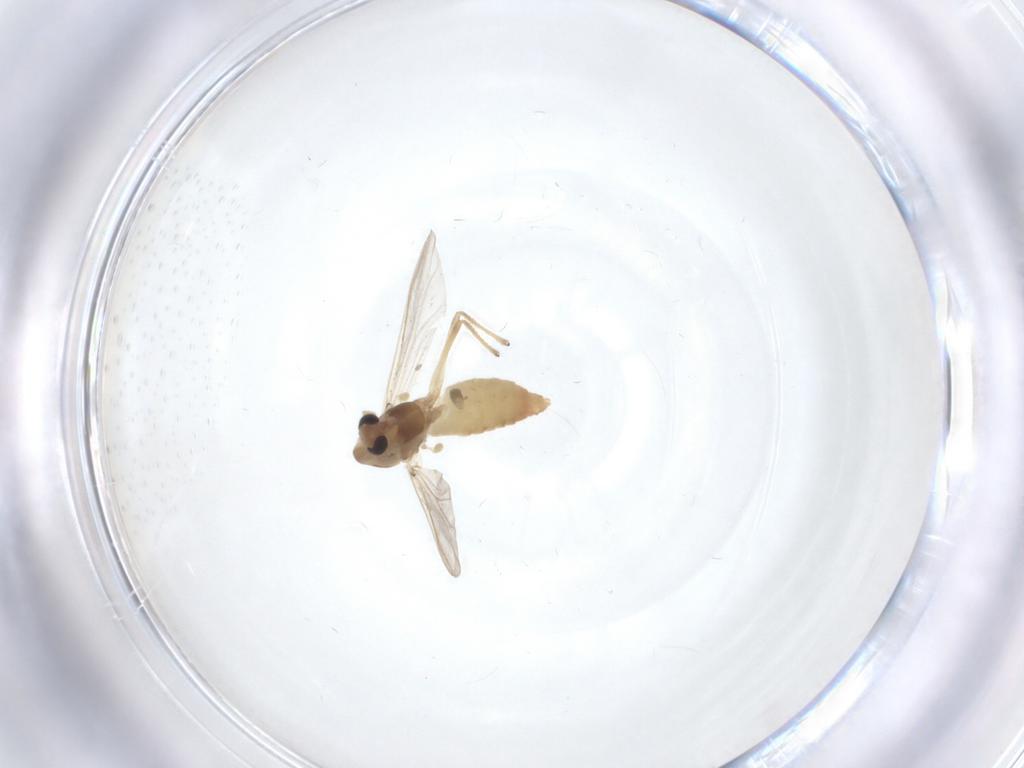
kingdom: Animalia
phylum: Arthropoda
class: Insecta
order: Diptera
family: Chironomidae
